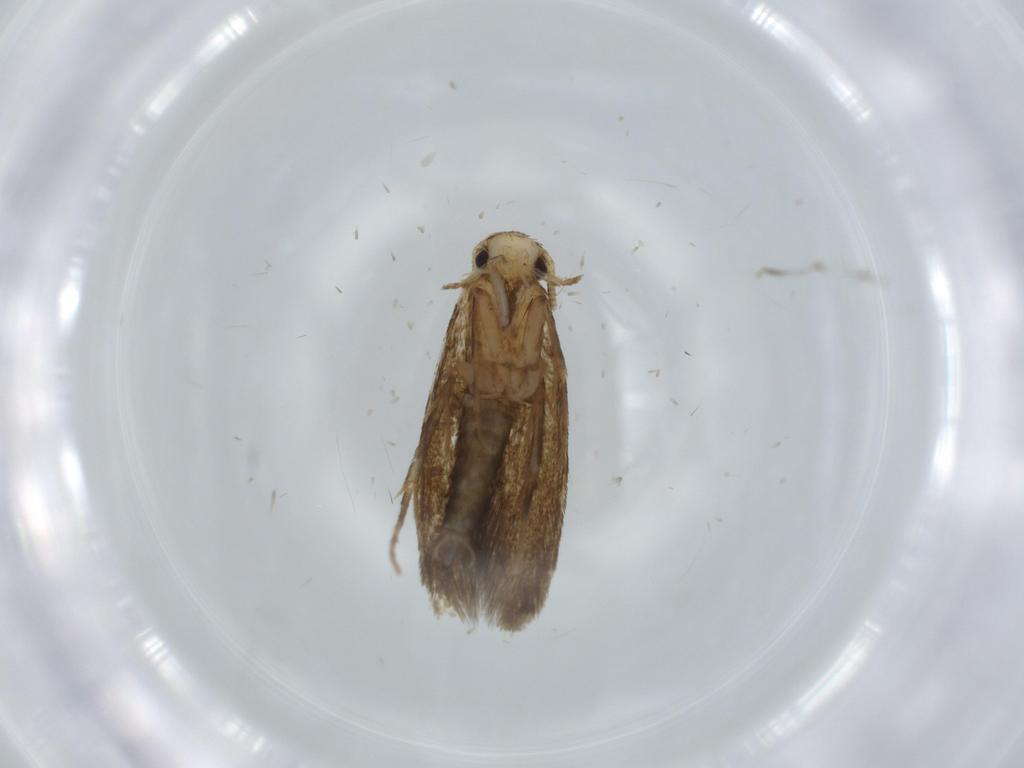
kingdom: Animalia
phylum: Arthropoda
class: Insecta
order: Lepidoptera
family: Tineidae
